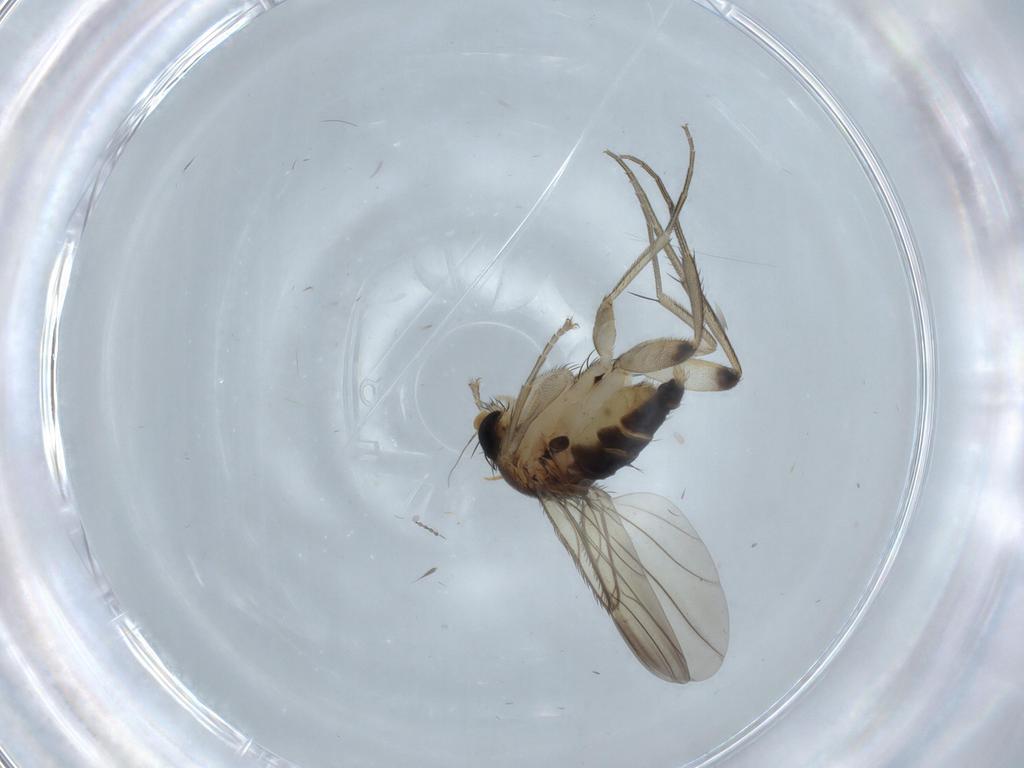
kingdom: Animalia
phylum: Arthropoda
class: Insecta
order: Diptera
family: Phoridae
